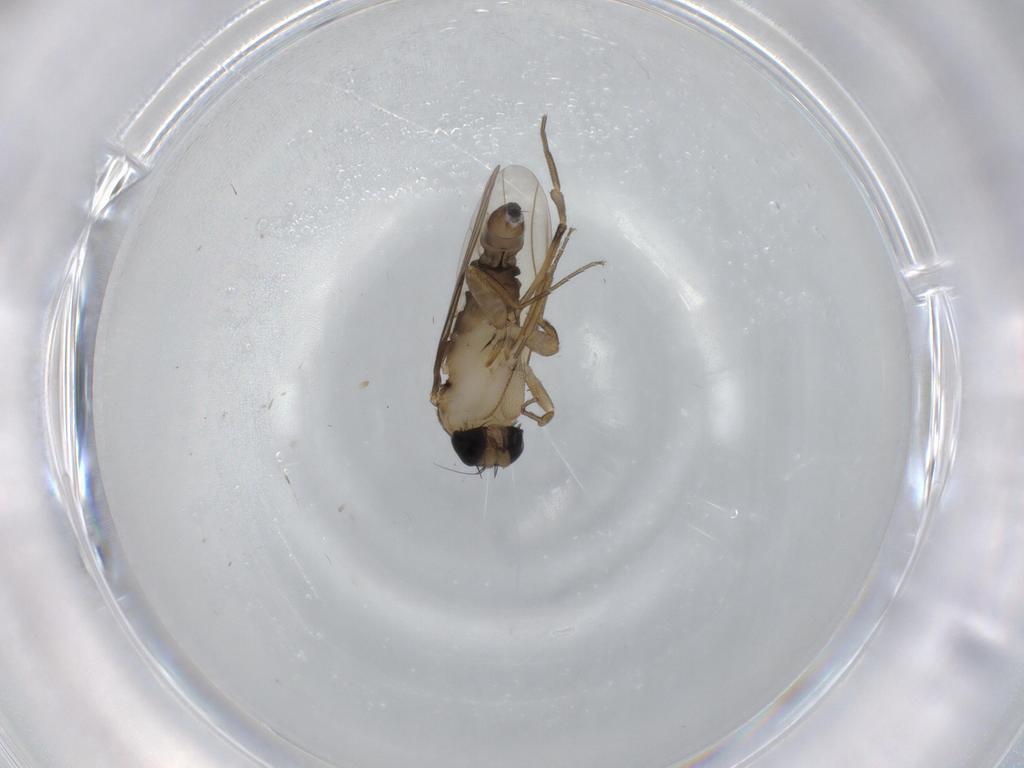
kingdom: Animalia
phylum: Arthropoda
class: Insecta
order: Diptera
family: Phoridae
